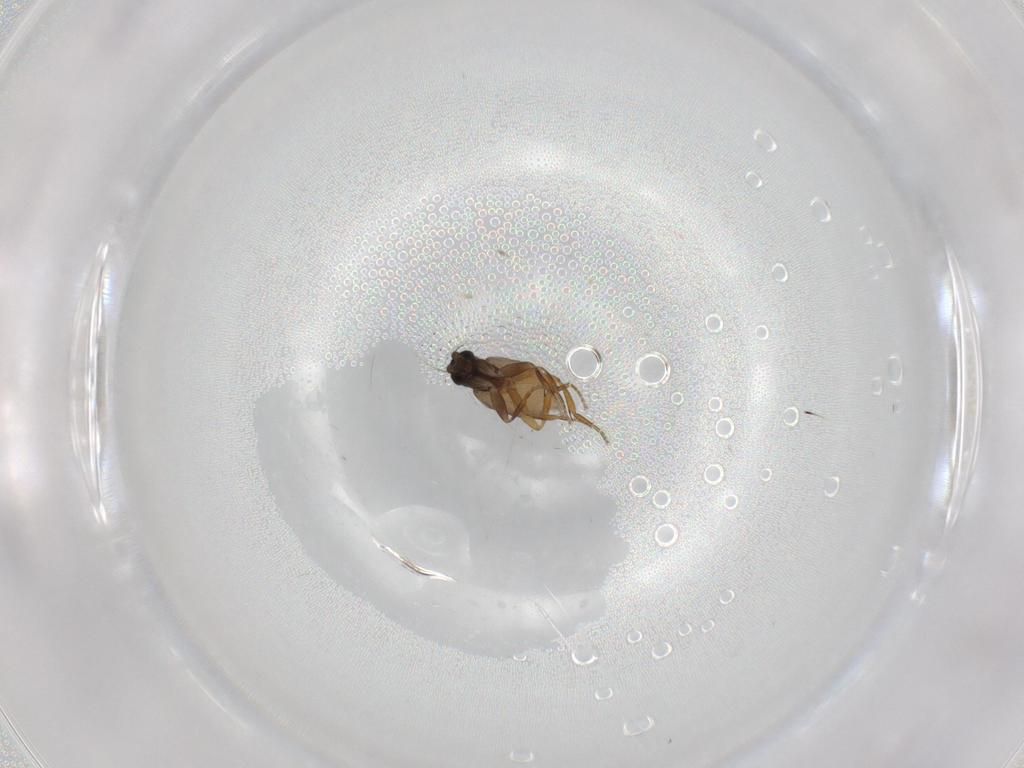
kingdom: Animalia
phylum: Arthropoda
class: Insecta
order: Diptera
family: Phoridae
